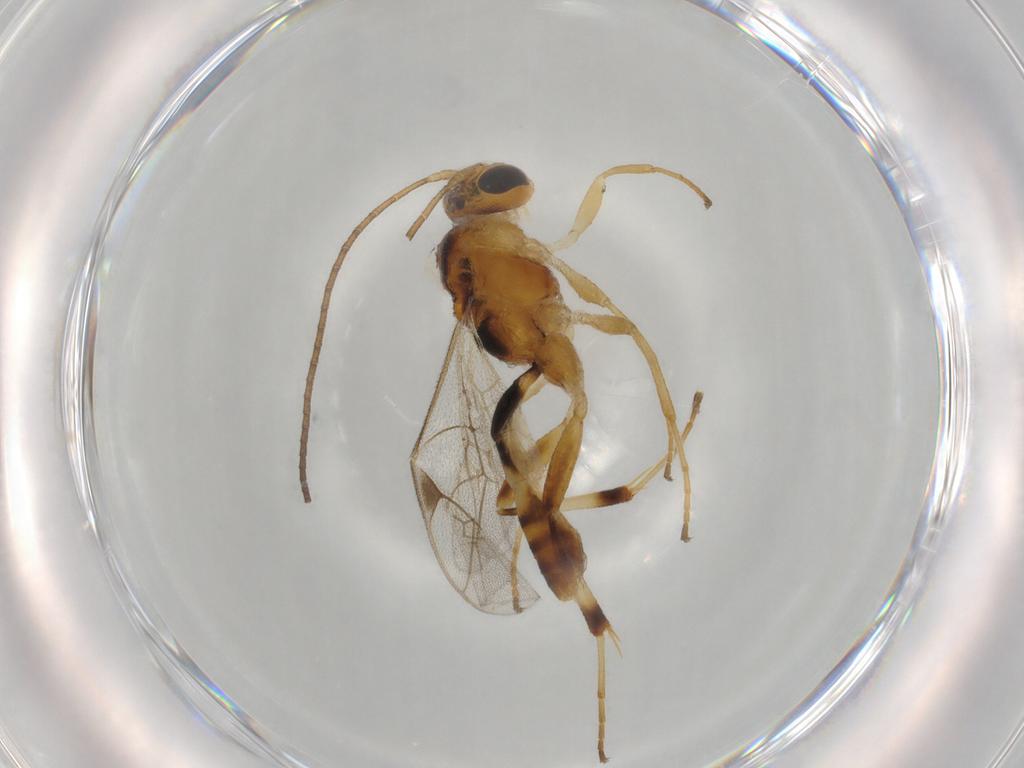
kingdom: Animalia
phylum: Arthropoda
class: Insecta
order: Hymenoptera
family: Ichneumonidae
